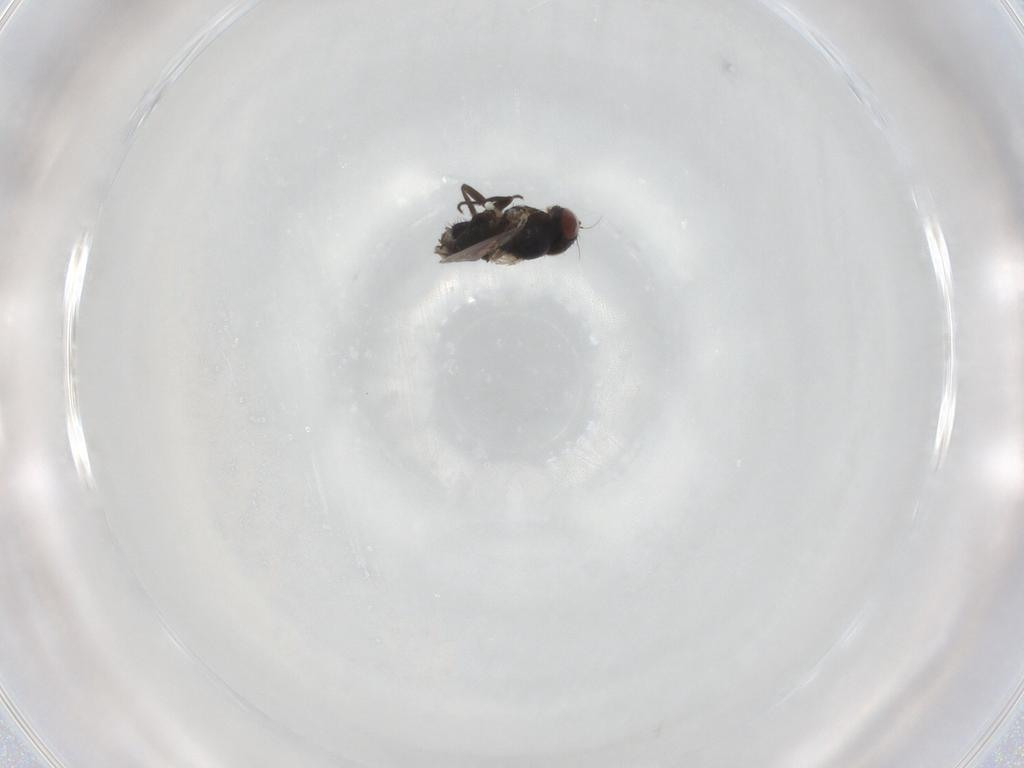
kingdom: Animalia
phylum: Arthropoda
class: Insecta
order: Diptera
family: Agromyzidae
